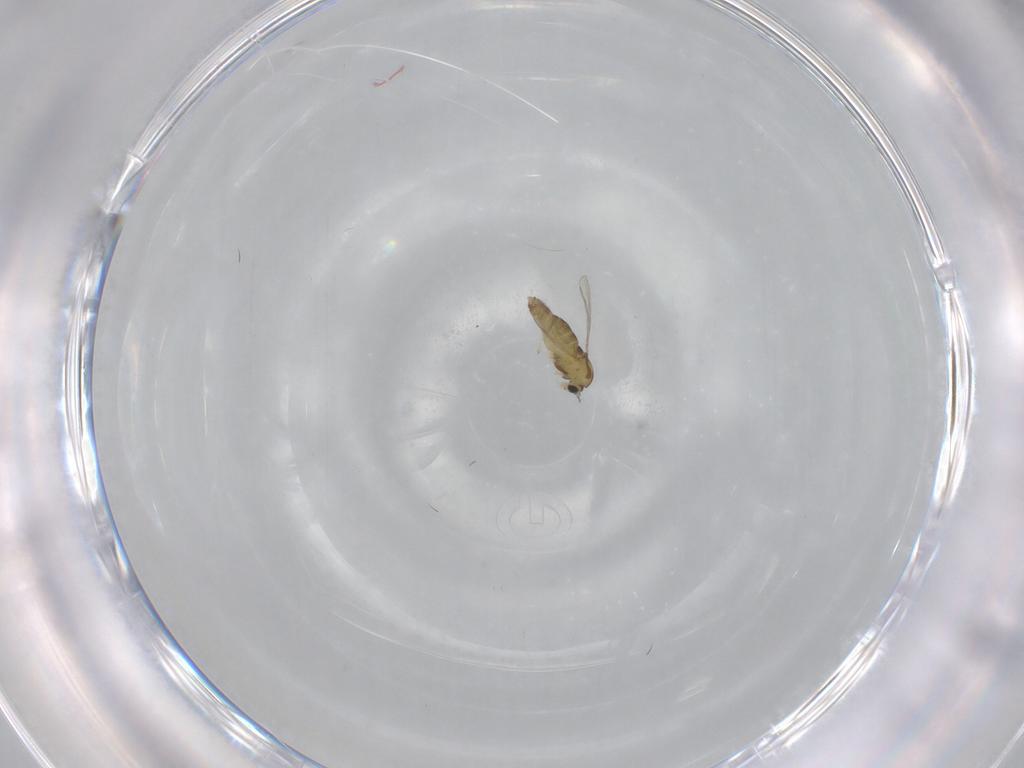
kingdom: Animalia
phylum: Arthropoda
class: Insecta
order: Diptera
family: Chironomidae
